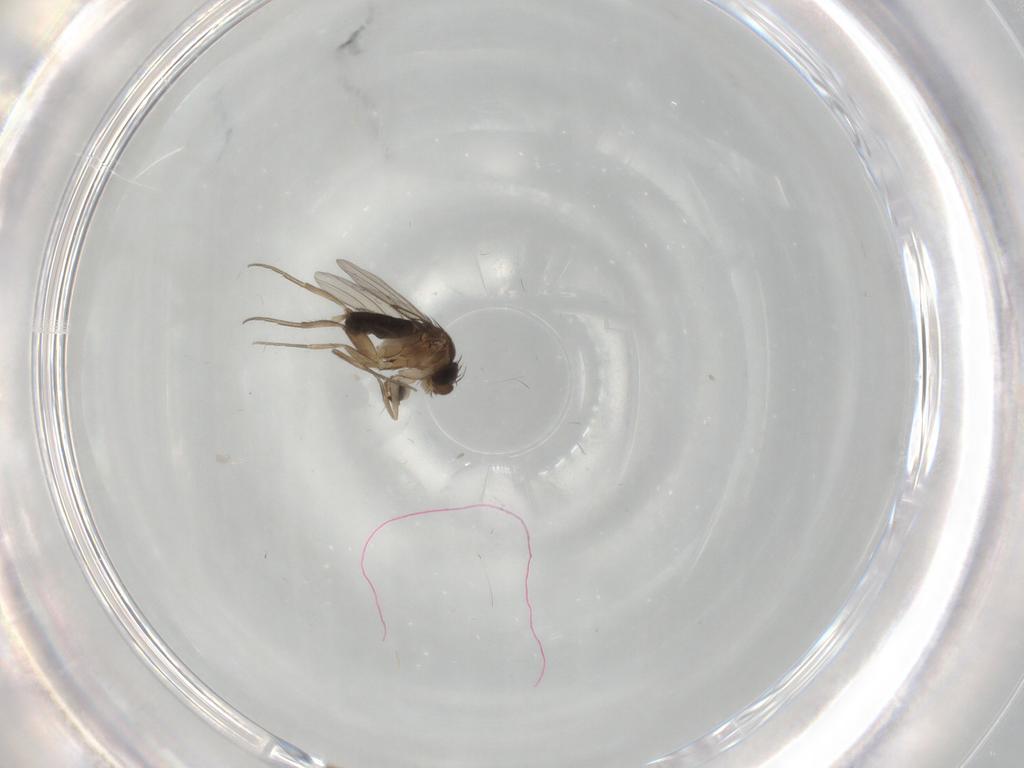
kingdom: Animalia
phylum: Arthropoda
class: Insecta
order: Diptera
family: Phoridae
